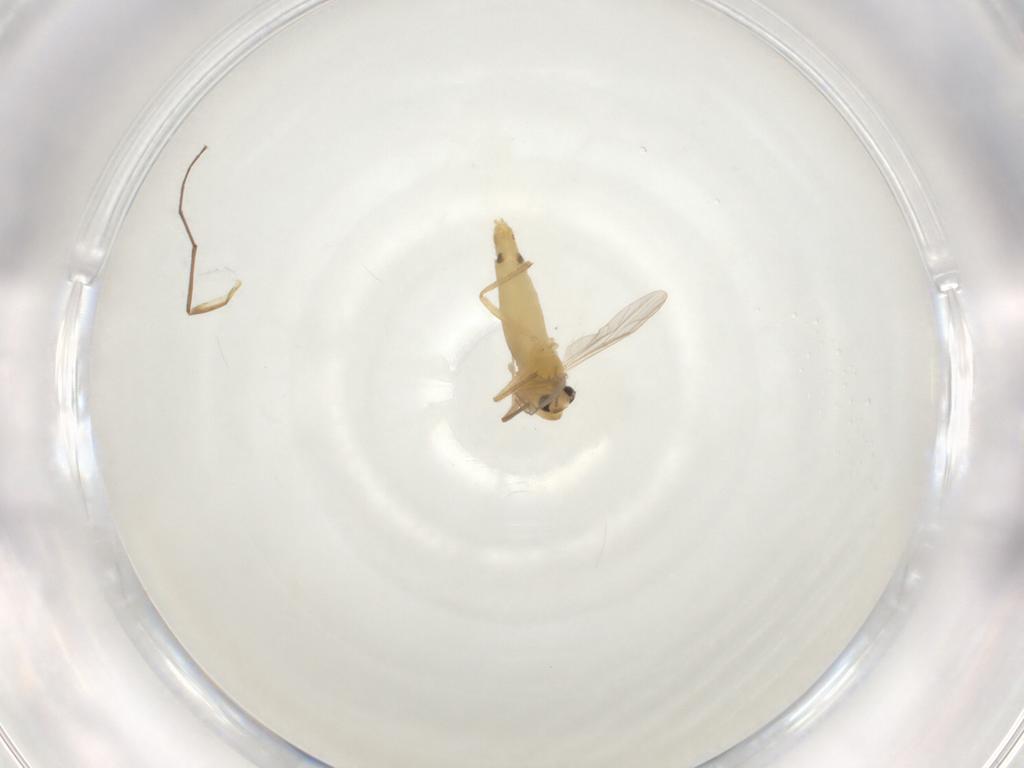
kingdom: Animalia
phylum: Arthropoda
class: Insecta
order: Diptera
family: Chironomidae
